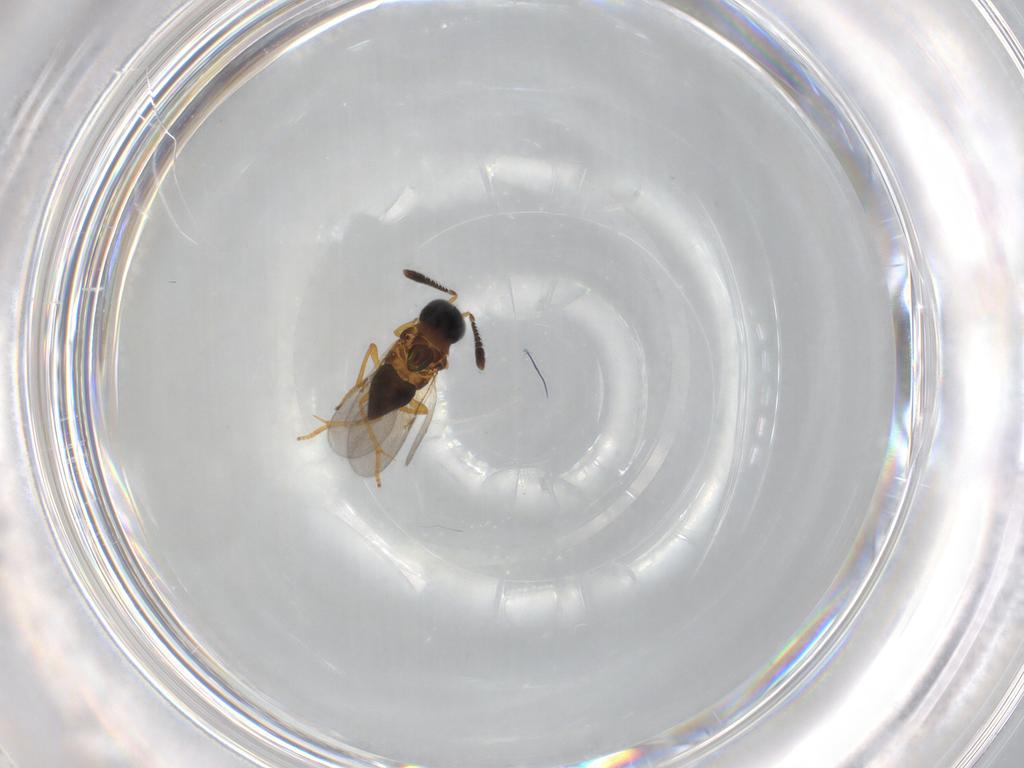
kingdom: Animalia
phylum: Arthropoda
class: Insecta
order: Hymenoptera
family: Encyrtidae
